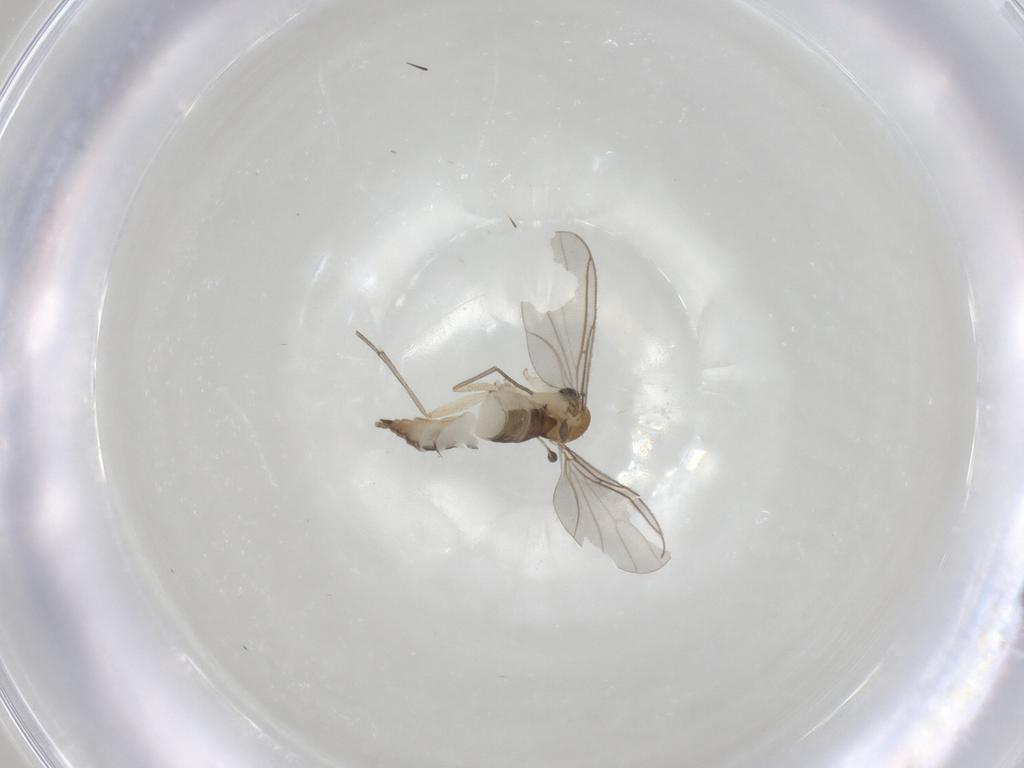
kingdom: Animalia
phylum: Arthropoda
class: Insecta
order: Diptera
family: Sciaridae
